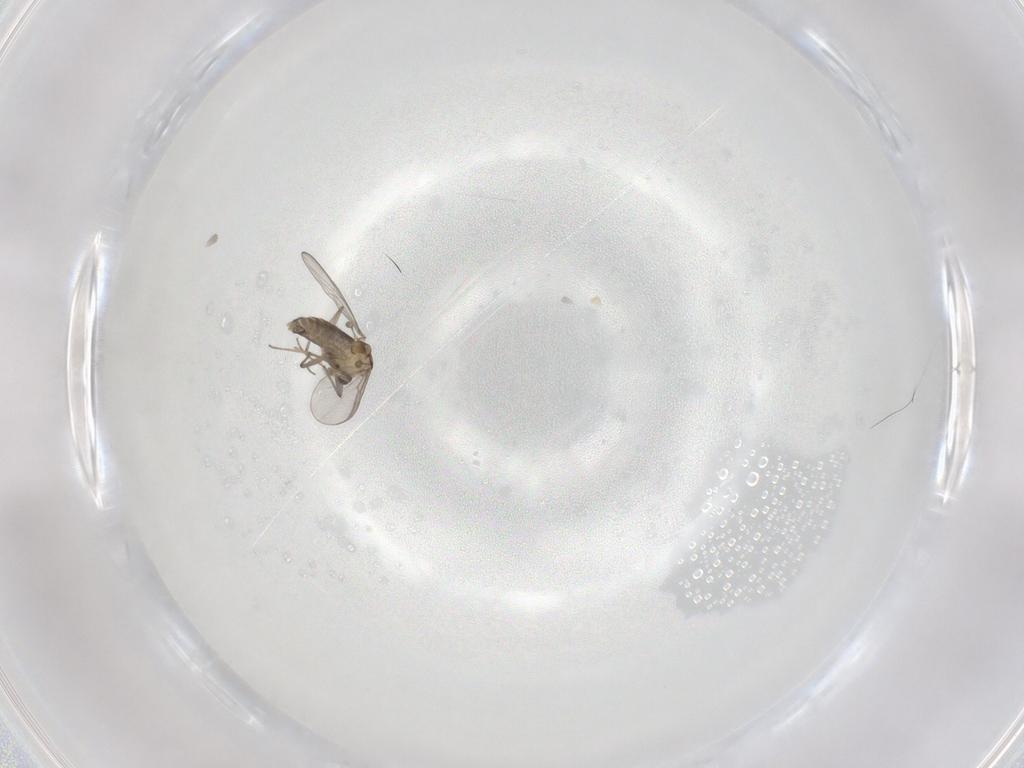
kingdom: Animalia
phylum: Arthropoda
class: Insecta
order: Diptera
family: Chironomidae
